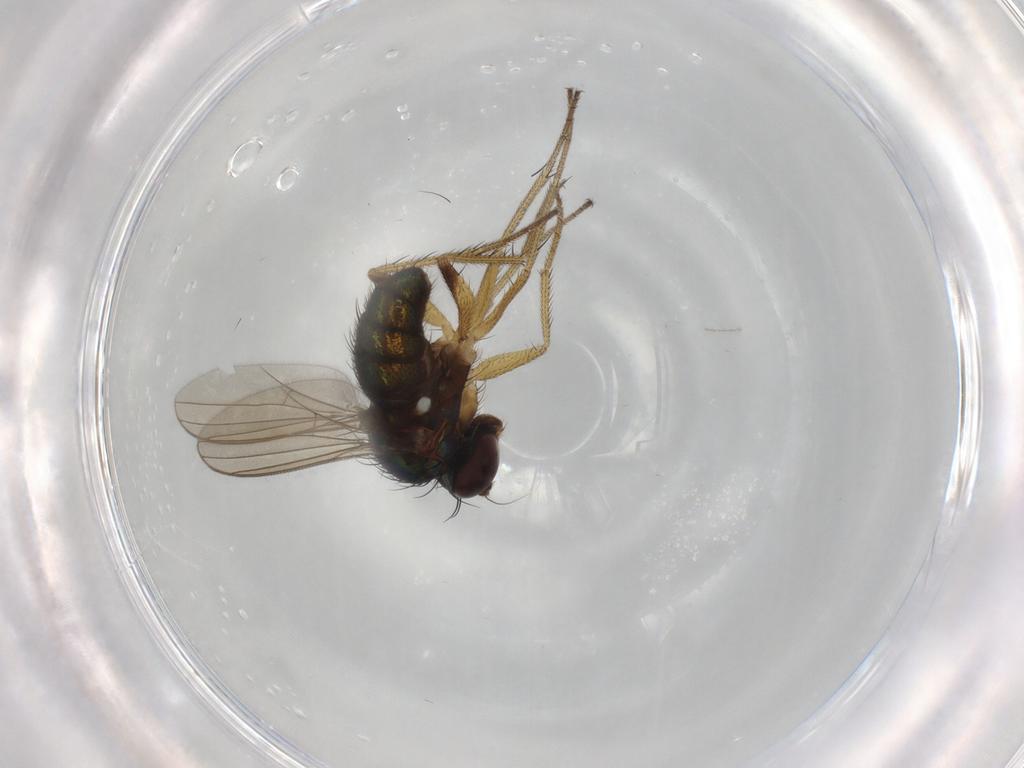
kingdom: Animalia
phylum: Arthropoda
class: Insecta
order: Diptera
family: Dolichopodidae
